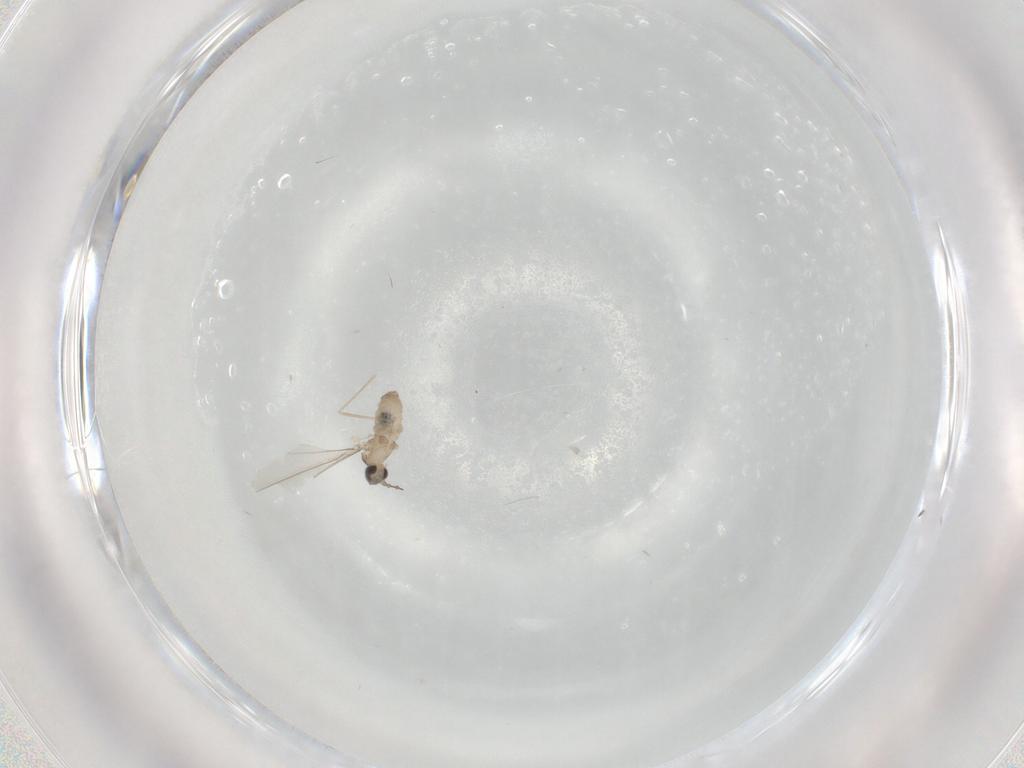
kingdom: Animalia
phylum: Arthropoda
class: Insecta
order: Diptera
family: Cecidomyiidae
